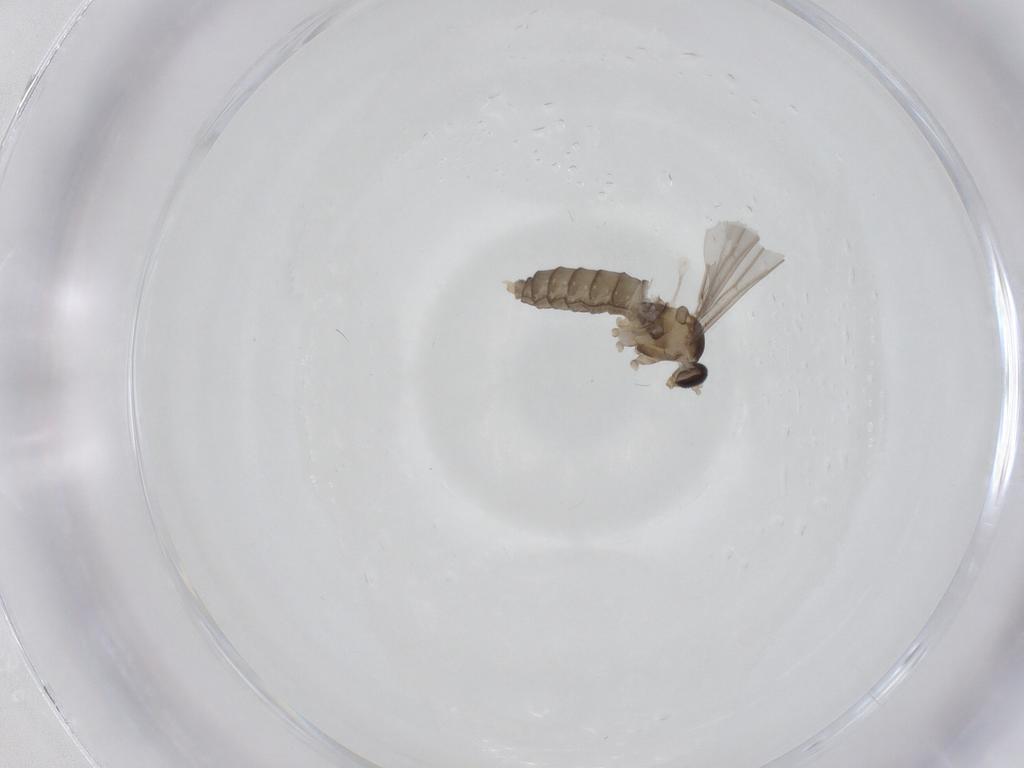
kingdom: Animalia
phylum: Arthropoda
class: Insecta
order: Diptera
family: Cecidomyiidae
